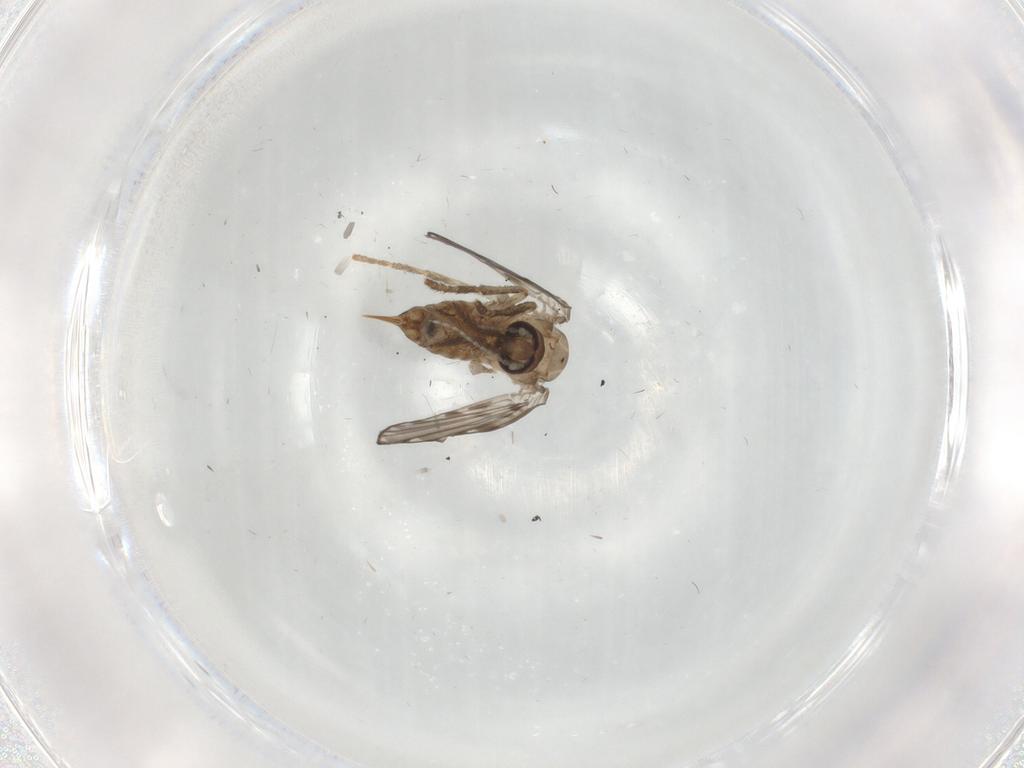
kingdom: Animalia
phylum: Arthropoda
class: Insecta
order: Diptera
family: Psychodidae
